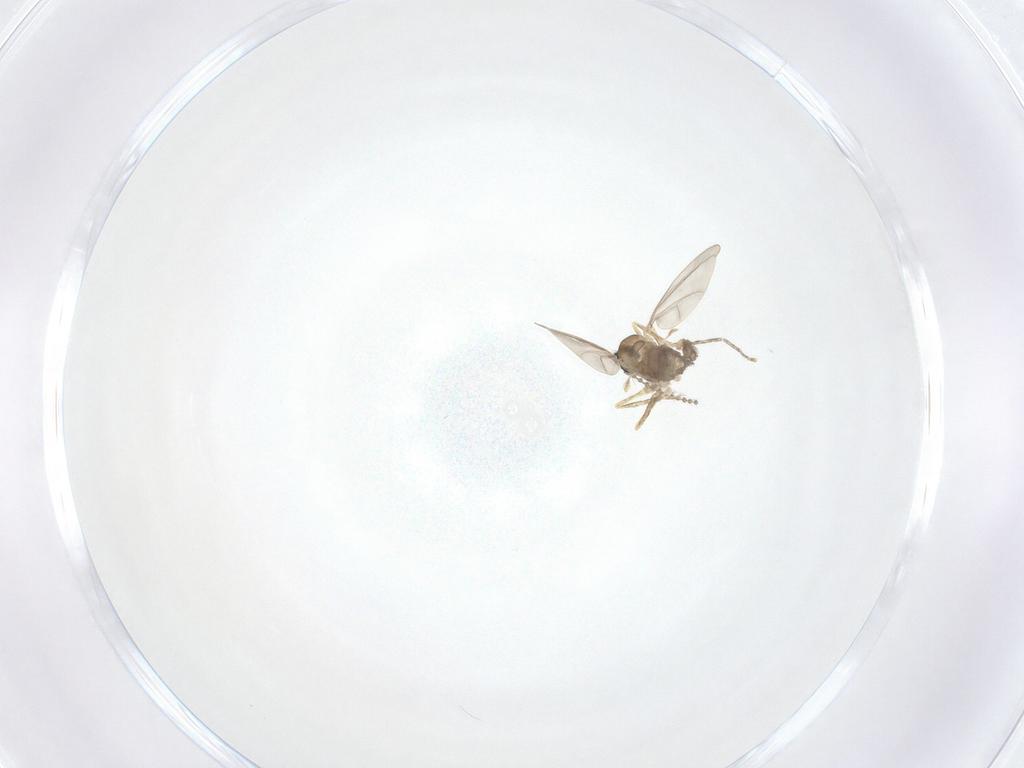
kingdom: Animalia
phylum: Arthropoda
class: Insecta
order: Diptera
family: Cecidomyiidae
